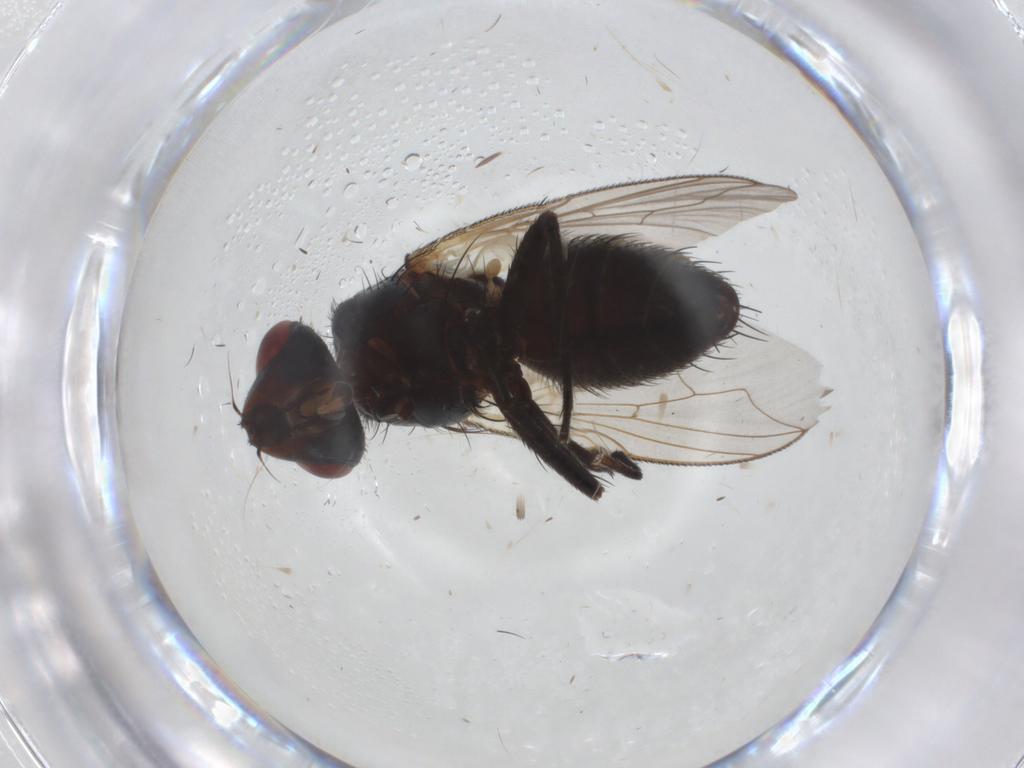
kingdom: Animalia
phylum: Arthropoda
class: Insecta
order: Diptera
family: Sarcophagidae
